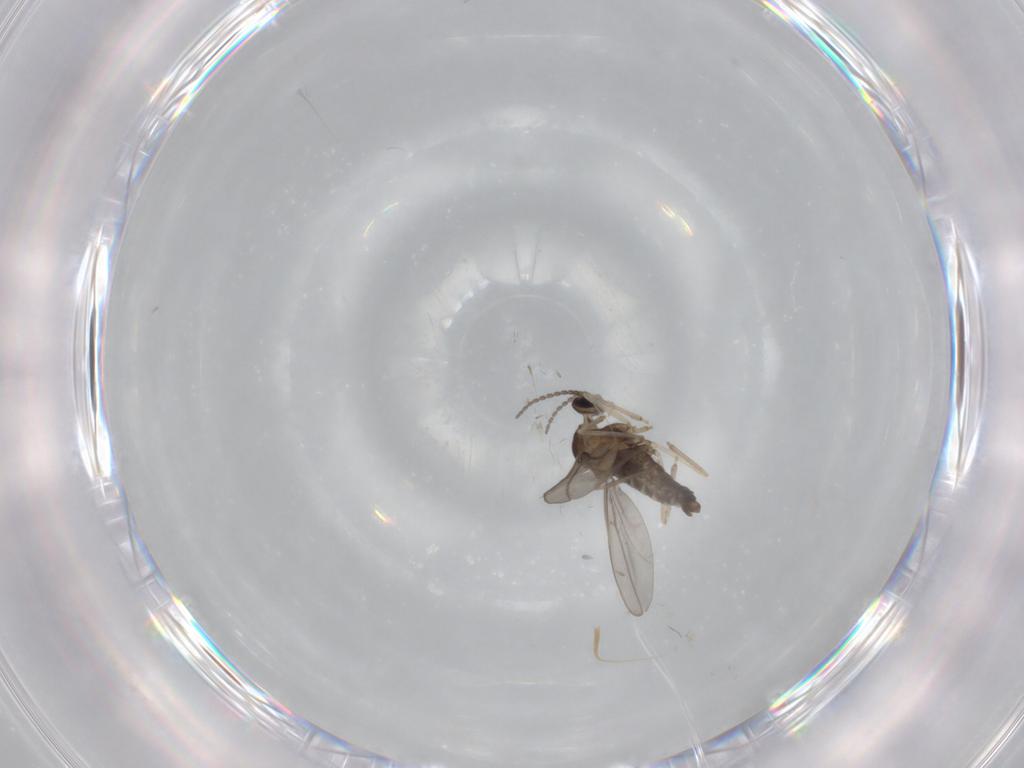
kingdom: Animalia
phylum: Arthropoda
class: Insecta
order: Diptera
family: Cecidomyiidae
